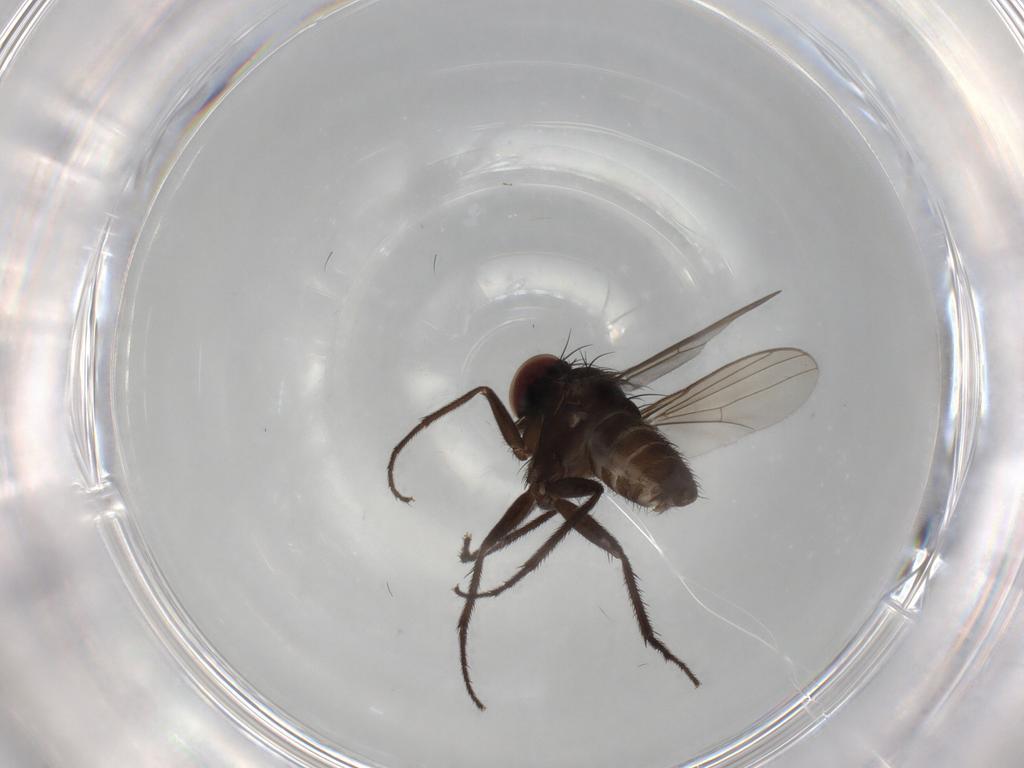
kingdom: Animalia
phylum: Arthropoda
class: Insecta
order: Diptera
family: Dolichopodidae
